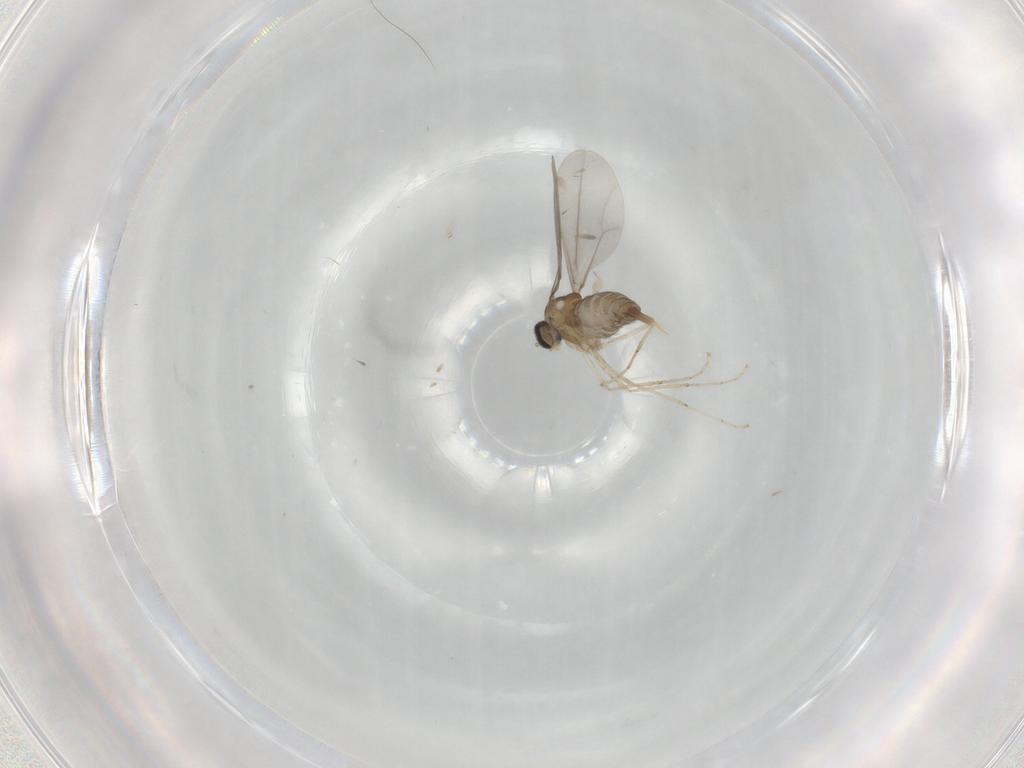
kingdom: Animalia
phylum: Arthropoda
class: Insecta
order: Diptera
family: Cecidomyiidae
